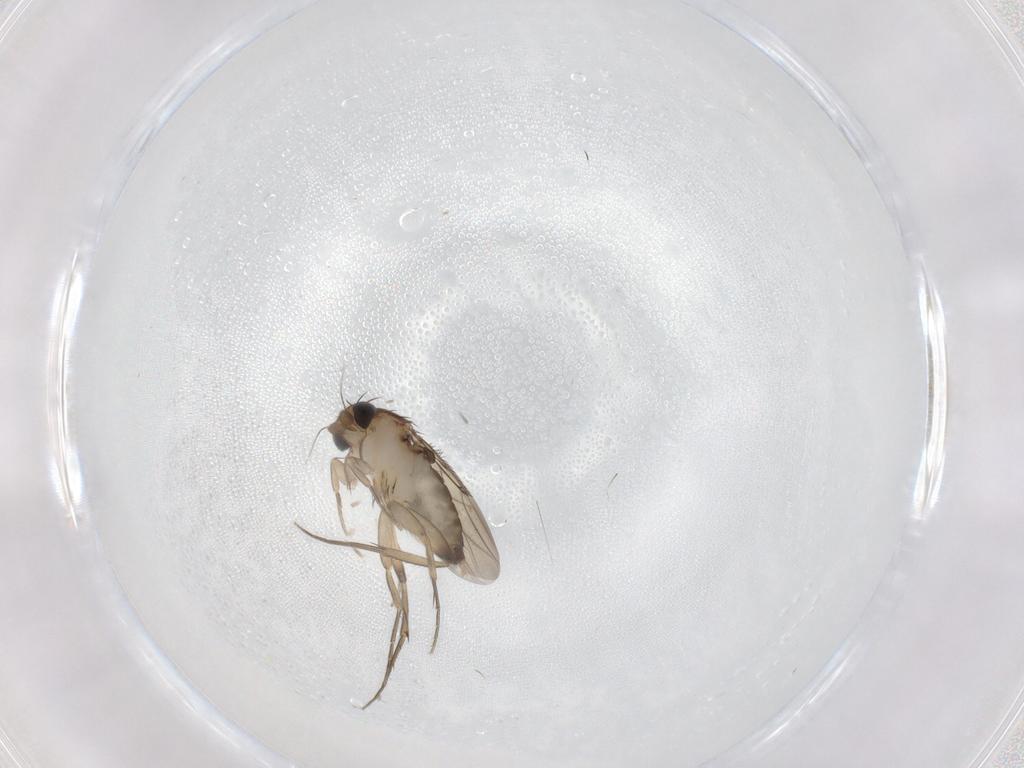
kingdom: Animalia
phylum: Arthropoda
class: Insecta
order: Diptera
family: Phoridae
